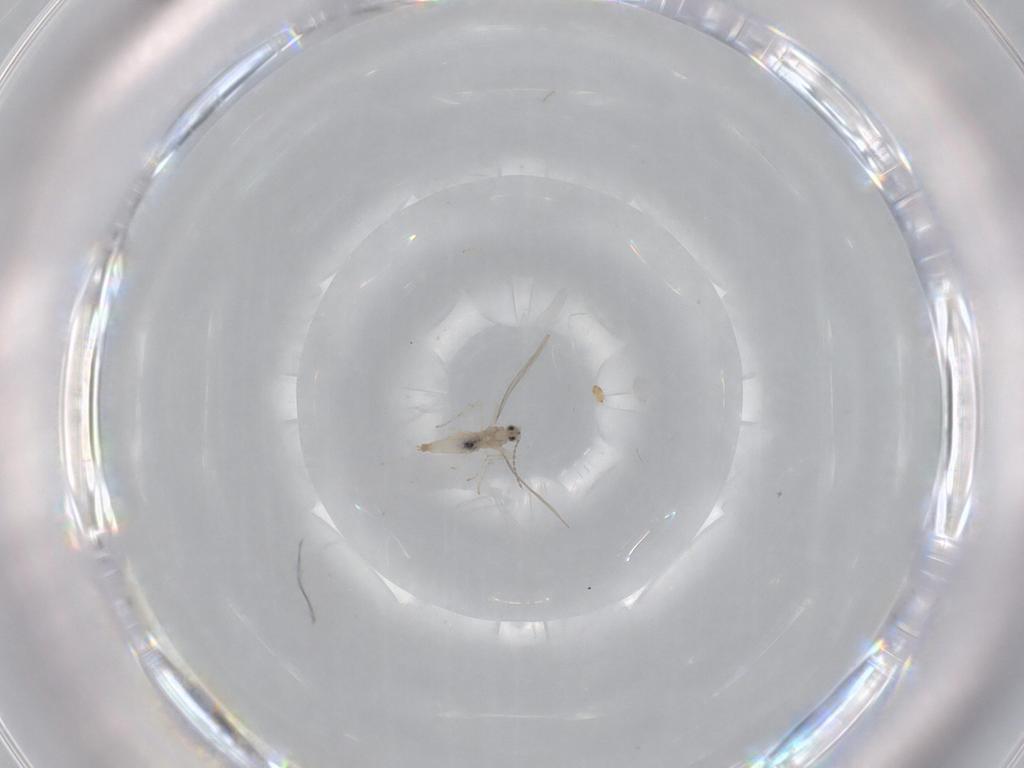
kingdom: Animalia
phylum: Arthropoda
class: Insecta
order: Diptera
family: Cecidomyiidae
